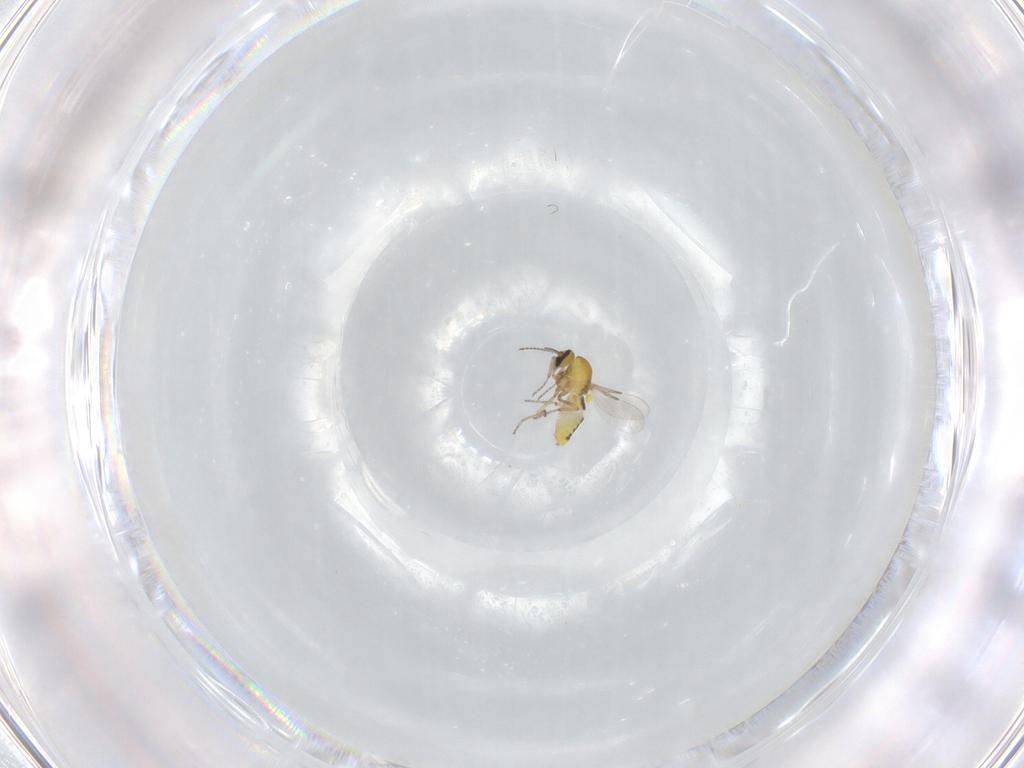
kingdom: Animalia
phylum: Arthropoda
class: Insecta
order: Diptera
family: Ceratopogonidae
